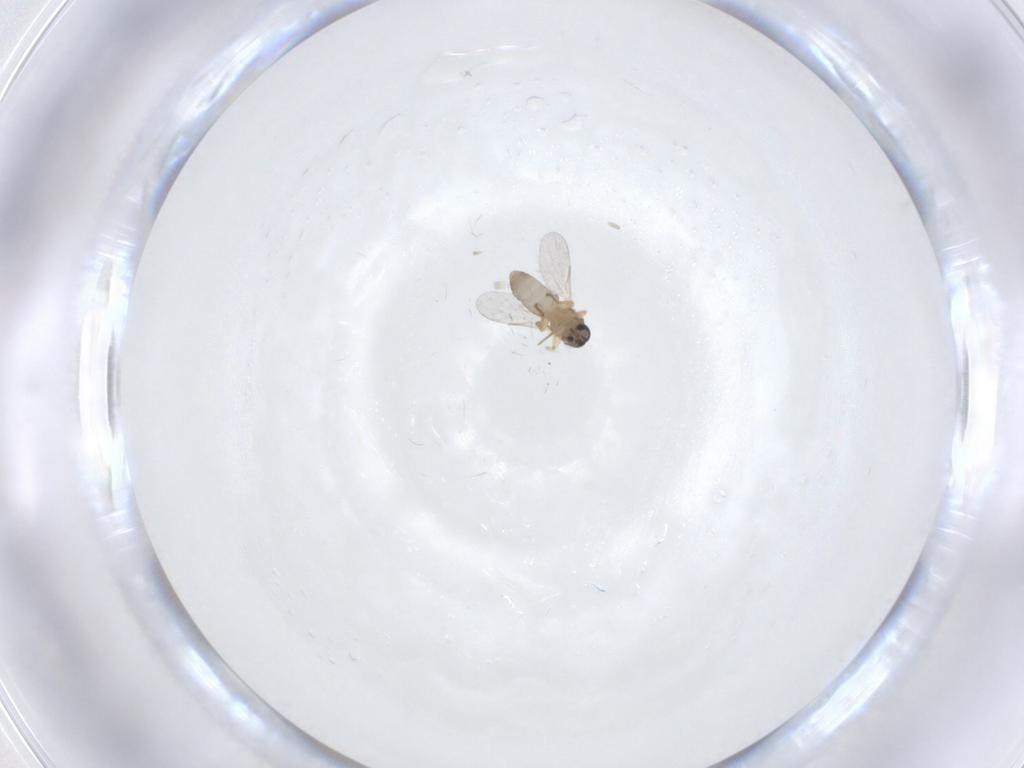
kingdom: Animalia
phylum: Arthropoda
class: Insecta
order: Diptera
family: Ceratopogonidae
